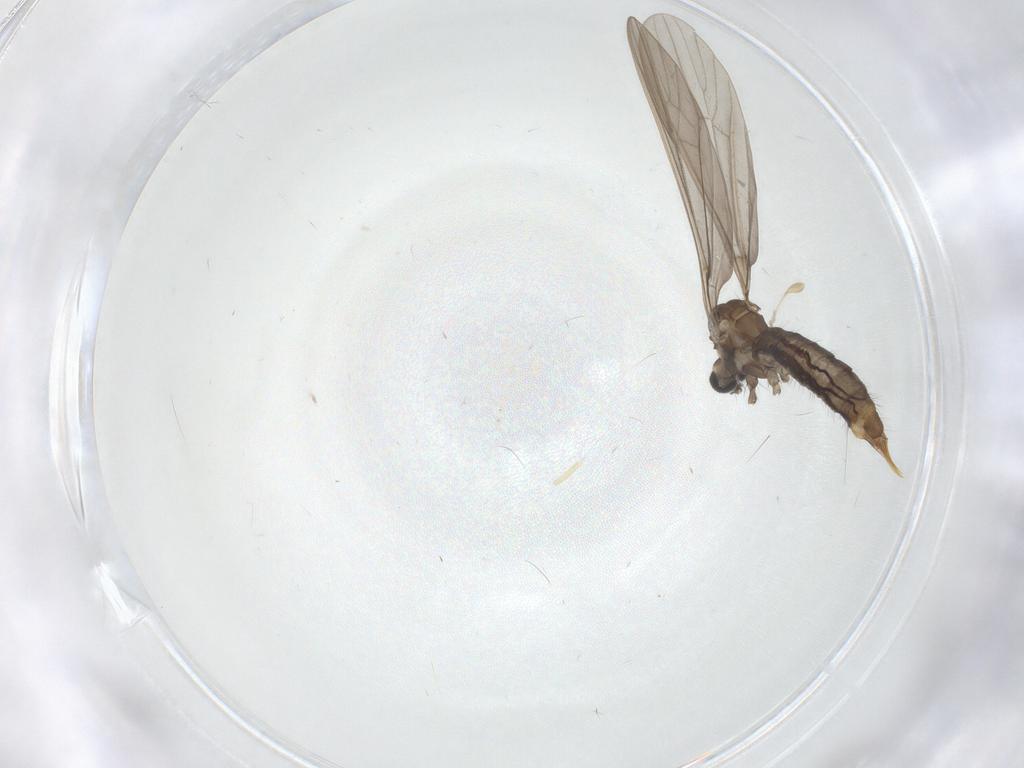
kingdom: Animalia
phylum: Arthropoda
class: Insecta
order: Diptera
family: Limoniidae
